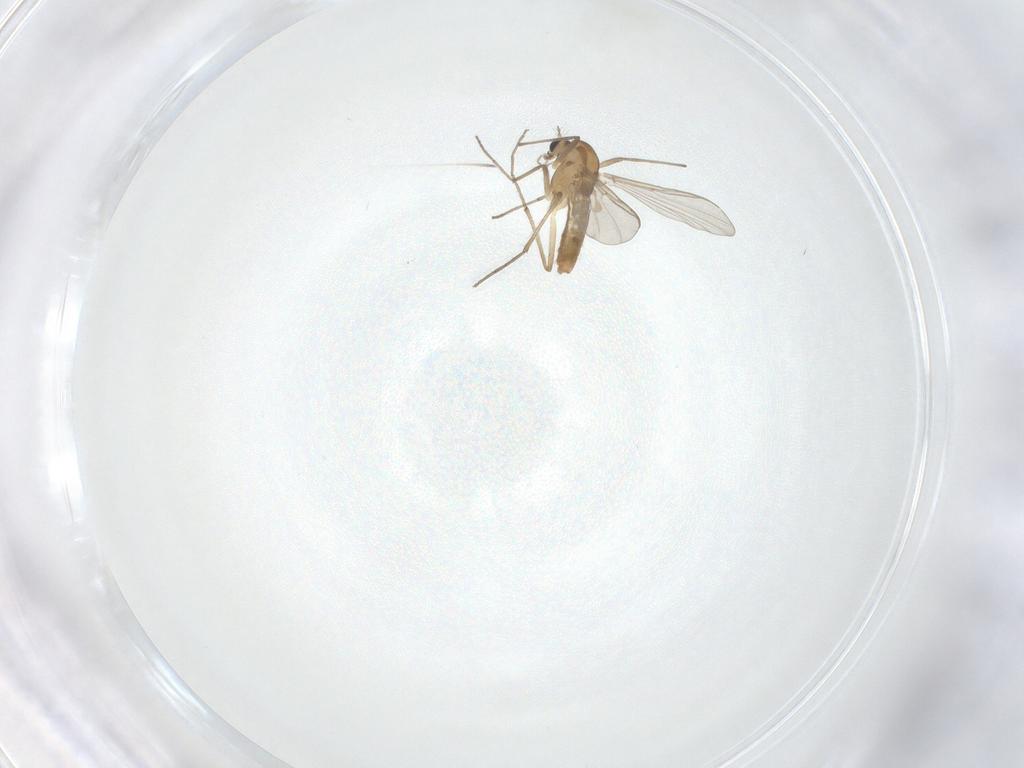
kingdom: Animalia
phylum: Arthropoda
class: Insecta
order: Diptera
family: Chironomidae
